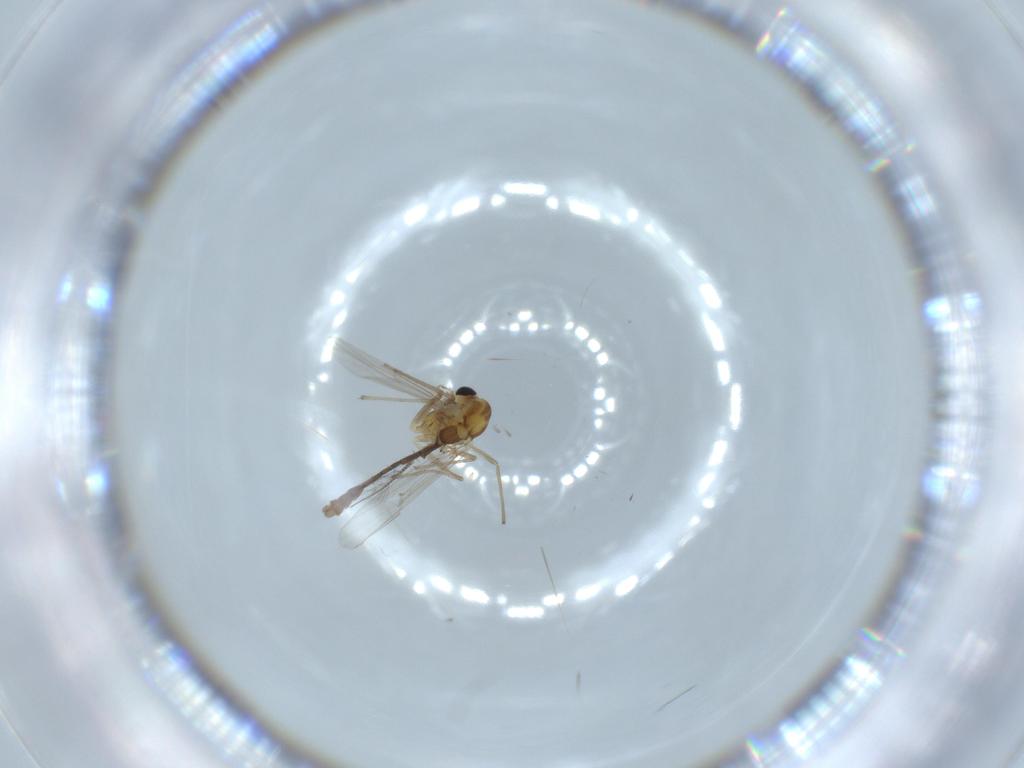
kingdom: Animalia
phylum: Arthropoda
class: Insecta
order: Diptera
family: Chironomidae
